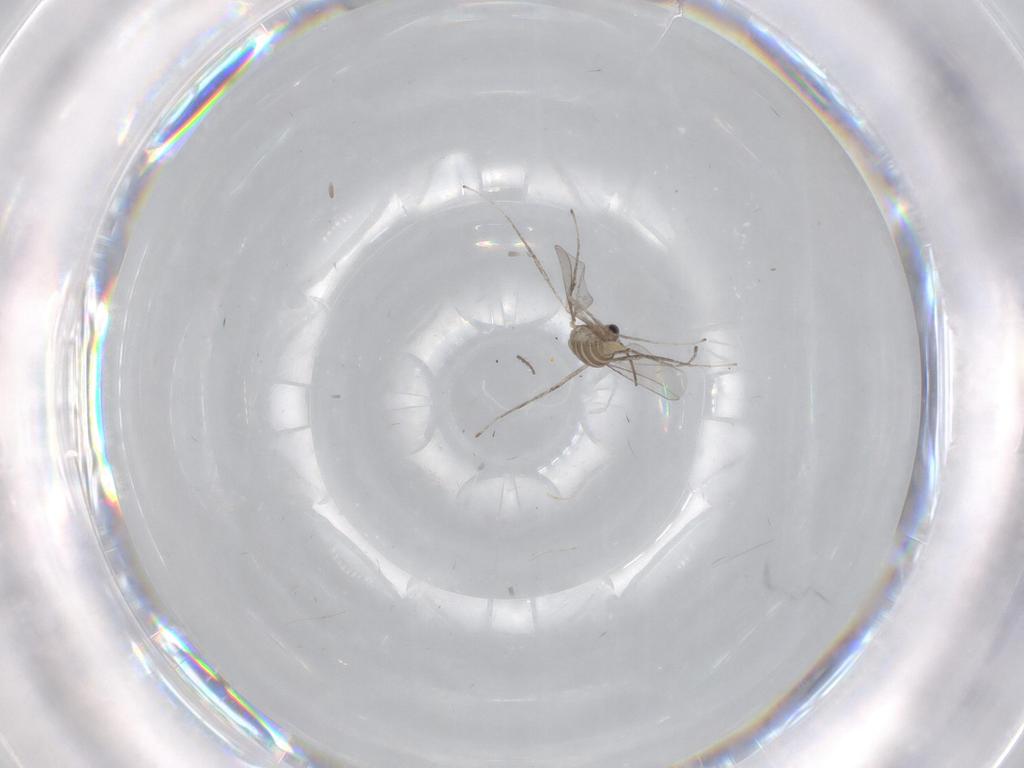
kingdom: Animalia
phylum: Arthropoda
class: Insecta
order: Diptera
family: Cecidomyiidae
